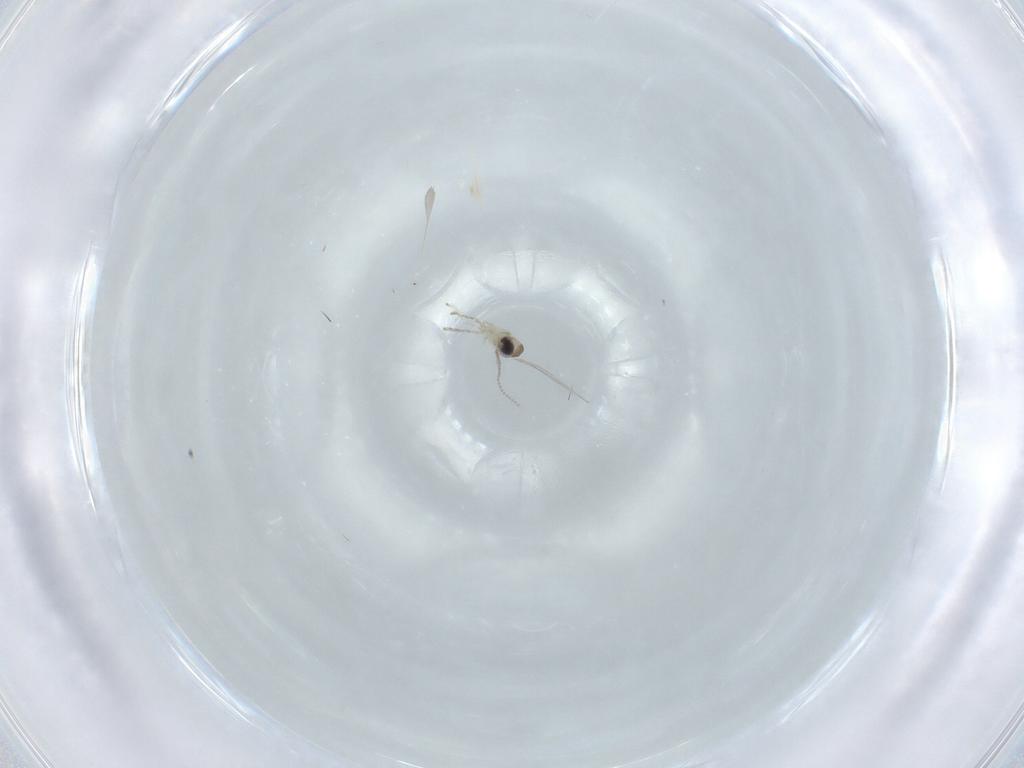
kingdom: Animalia
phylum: Arthropoda
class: Insecta
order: Diptera
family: Cecidomyiidae
